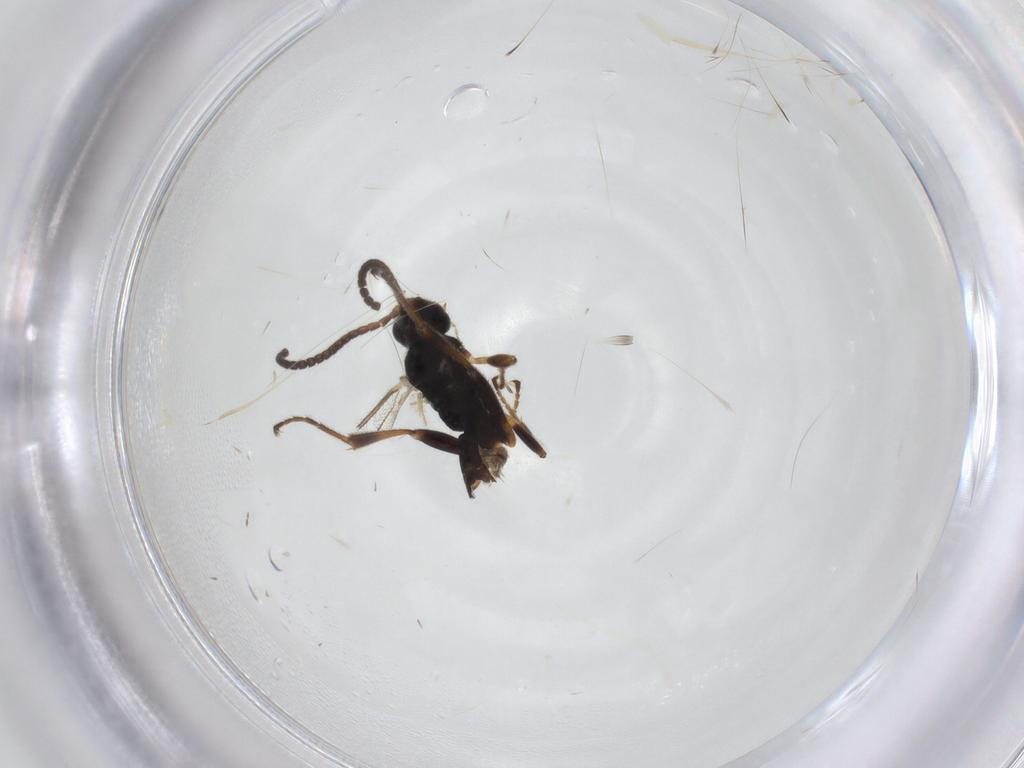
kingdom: Animalia
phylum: Arthropoda
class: Insecta
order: Hymenoptera
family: Ichneumonidae
